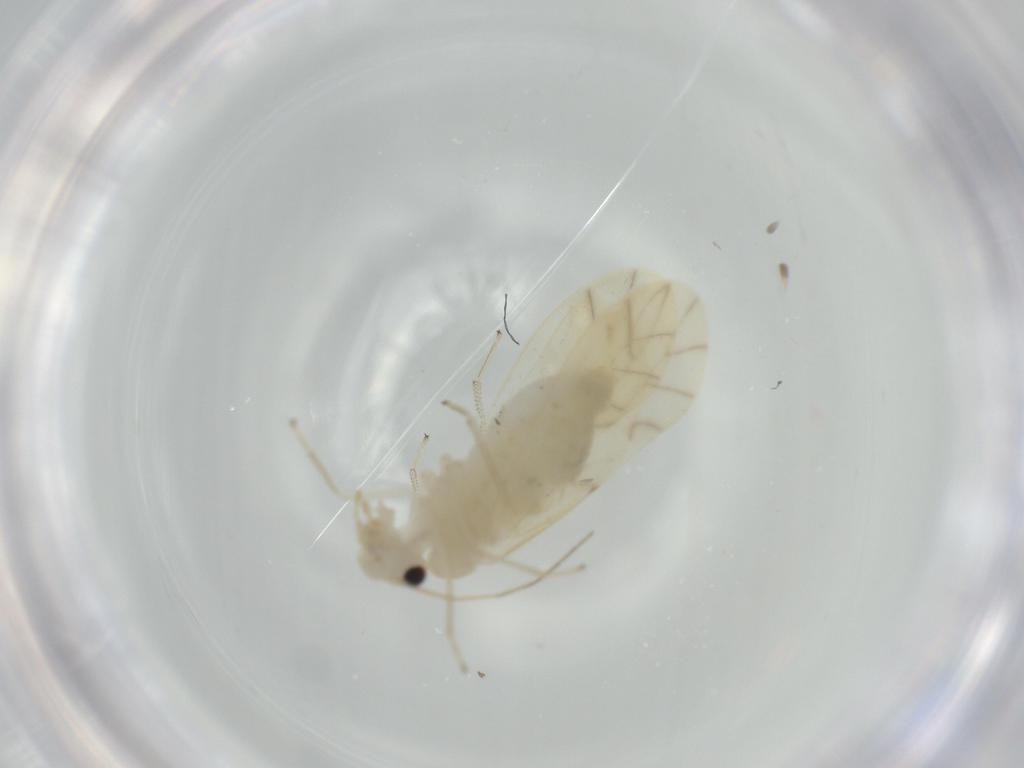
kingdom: Animalia
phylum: Arthropoda
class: Insecta
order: Psocodea
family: Caeciliusidae
